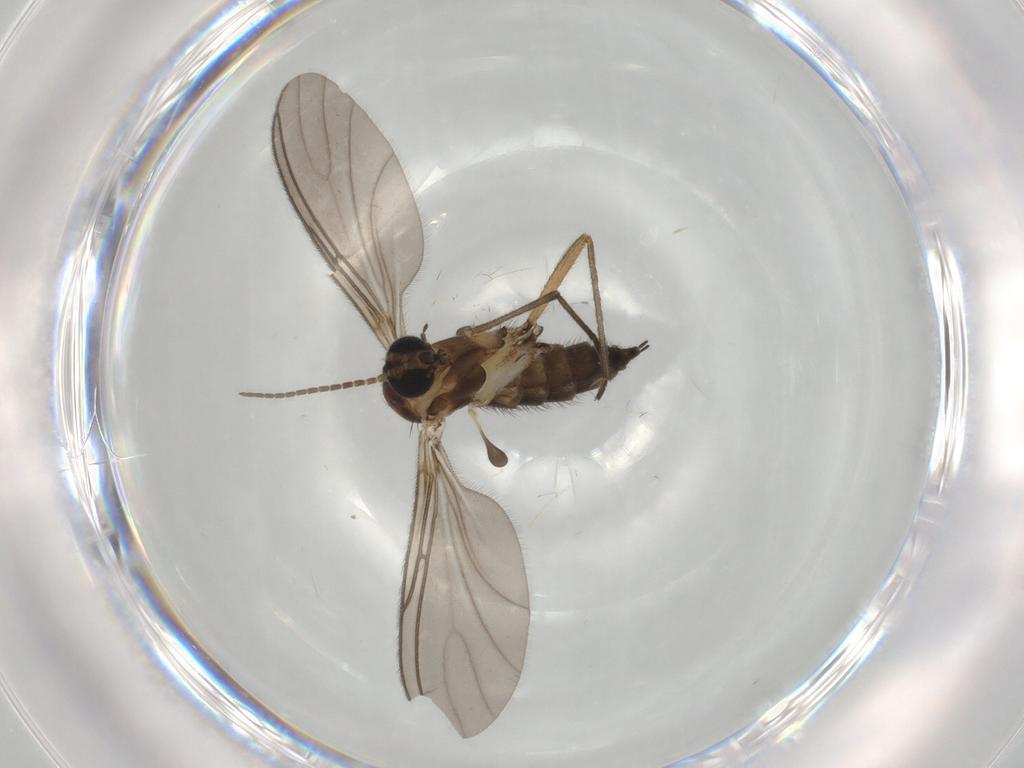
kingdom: Animalia
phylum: Arthropoda
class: Insecta
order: Diptera
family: Sciaridae
